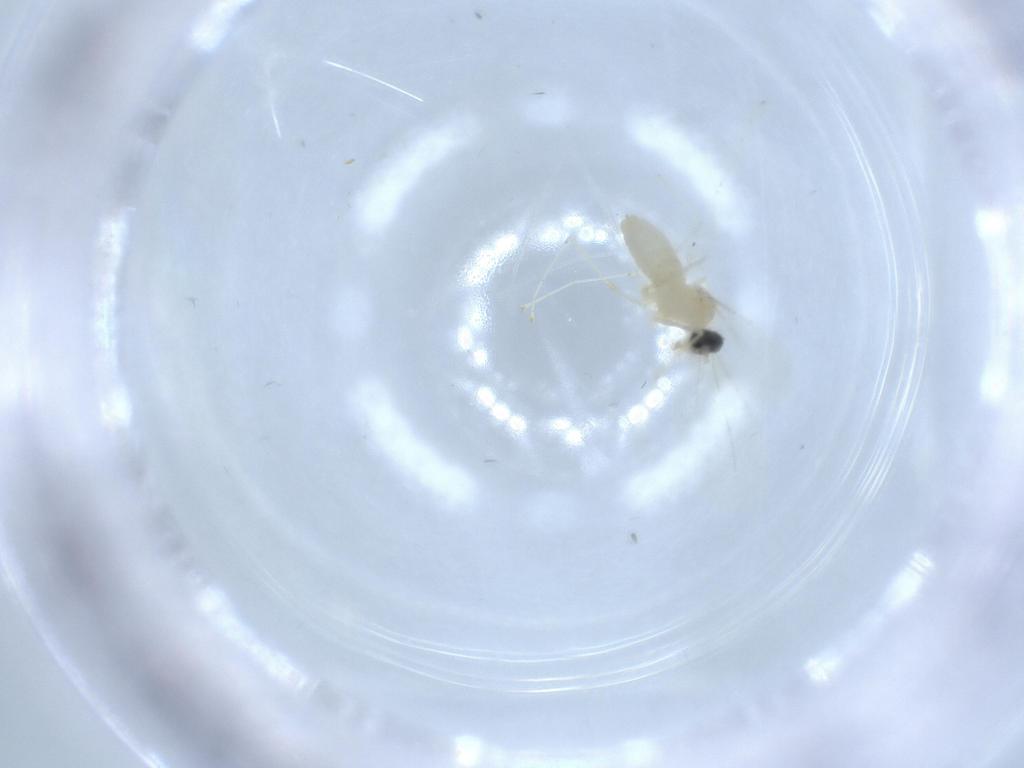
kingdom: Animalia
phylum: Arthropoda
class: Insecta
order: Diptera
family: Cecidomyiidae
